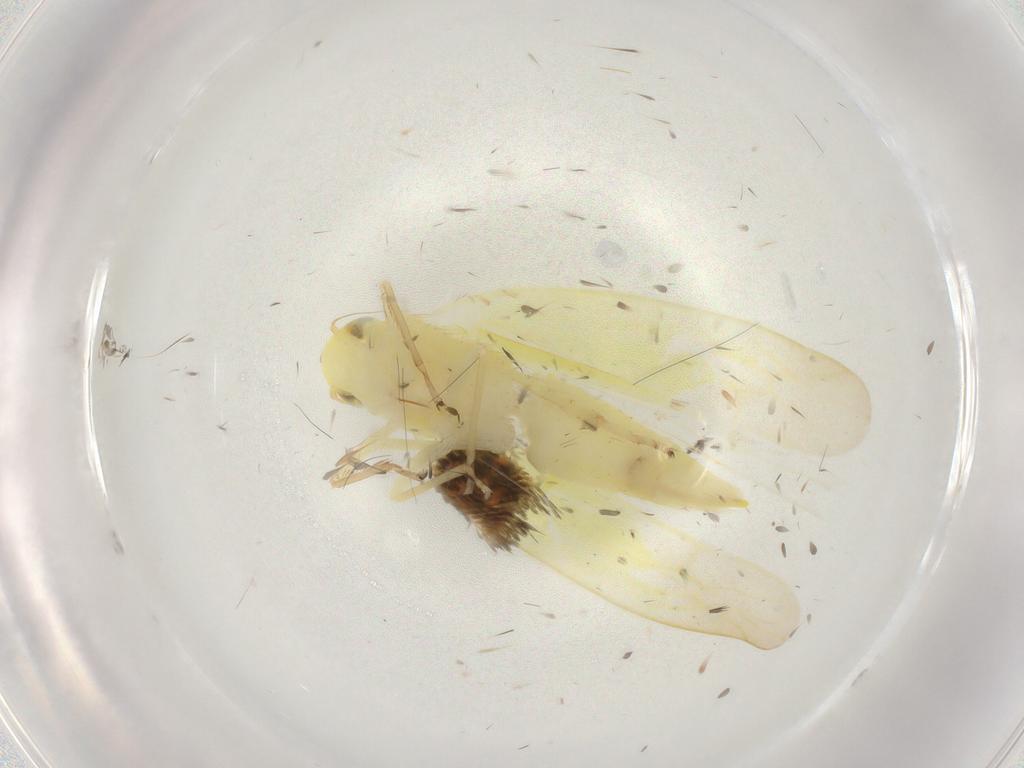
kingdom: Animalia
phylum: Arthropoda
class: Insecta
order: Hemiptera
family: Cicadellidae
